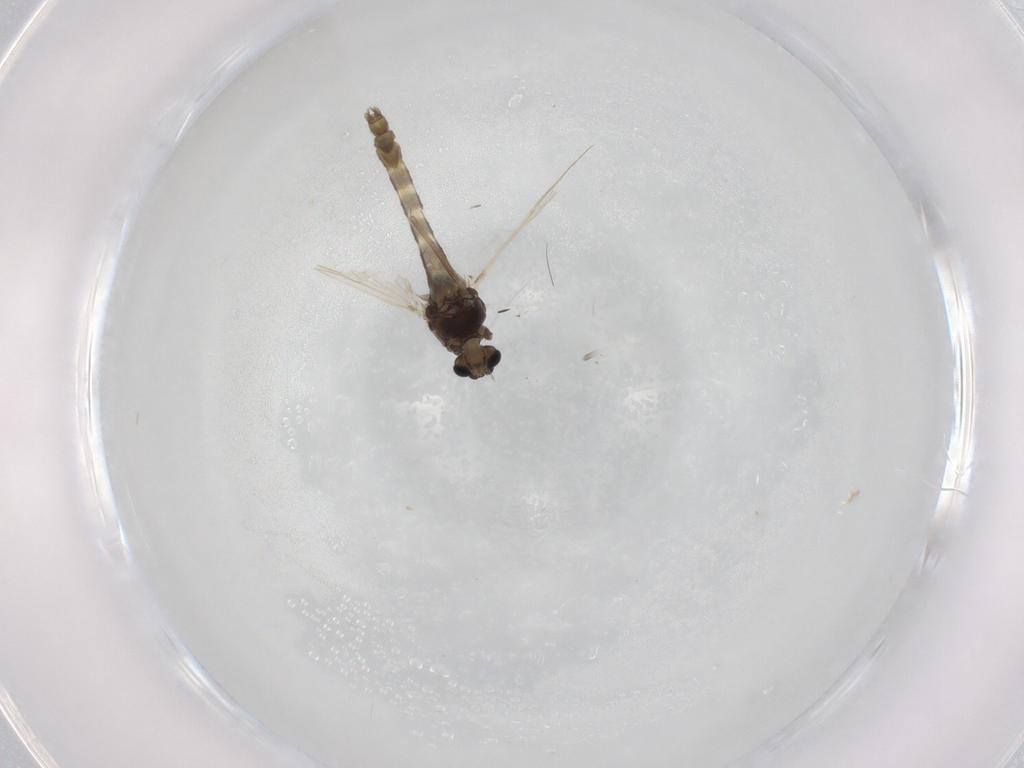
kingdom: Animalia
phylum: Arthropoda
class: Insecta
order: Diptera
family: Chironomidae
